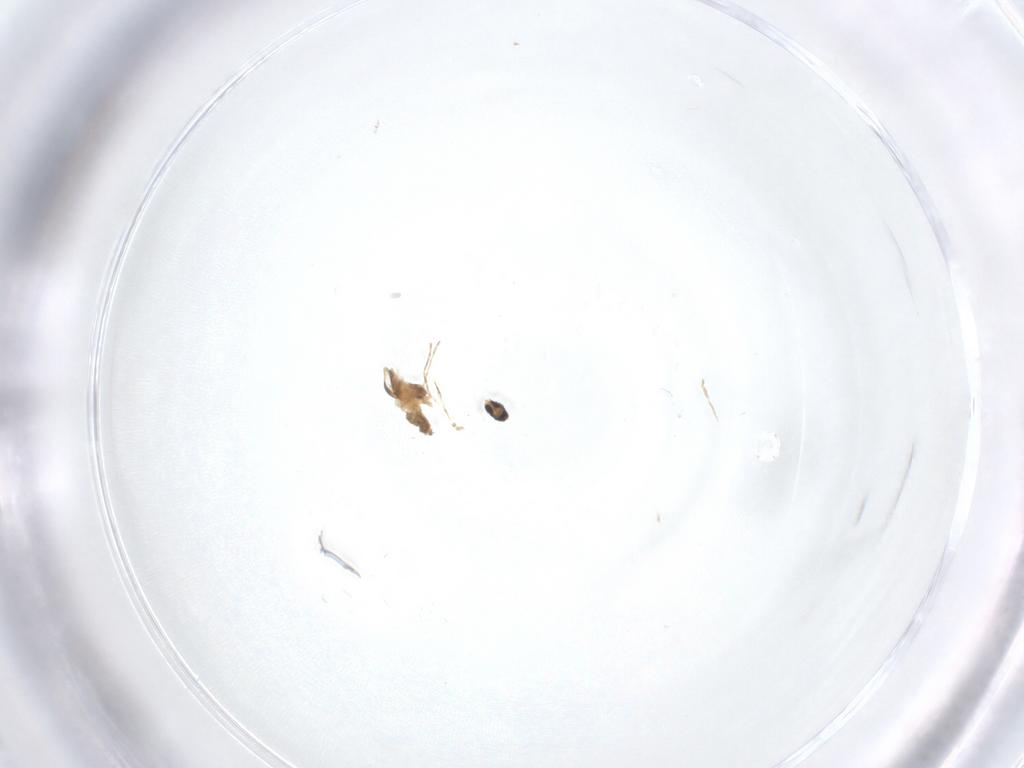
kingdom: Animalia
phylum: Arthropoda
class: Insecta
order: Diptera
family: Cecidomyiidae
